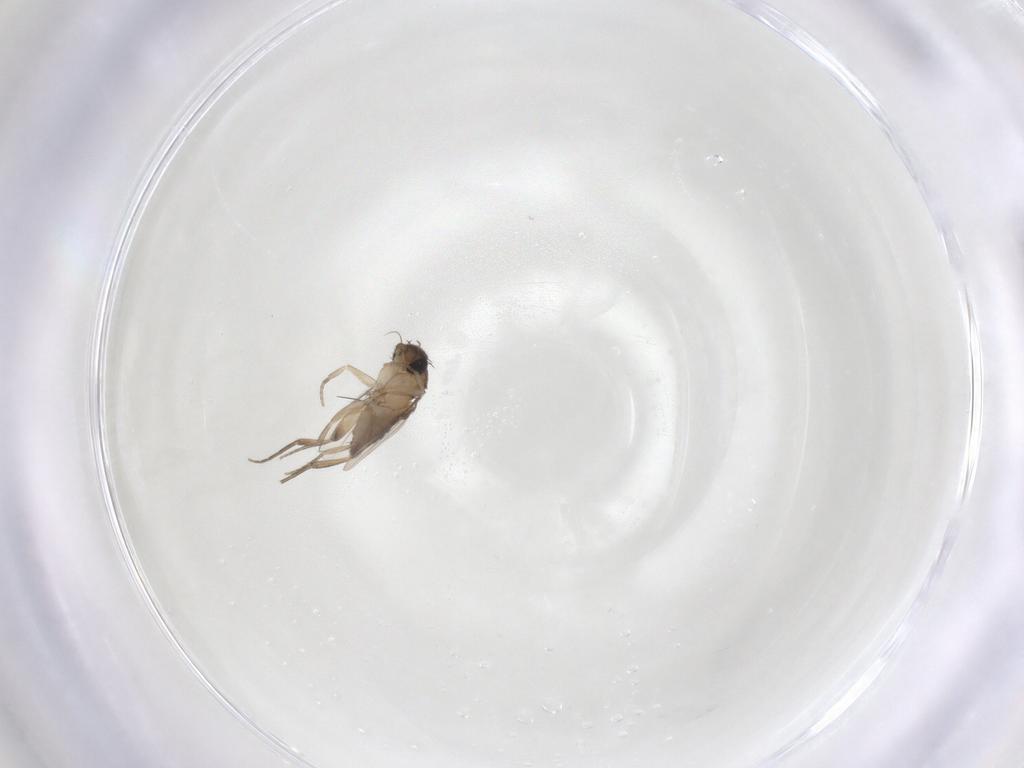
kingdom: Animalia
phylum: Arthropoda
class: Insecta
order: Diptera
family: Phoridae
